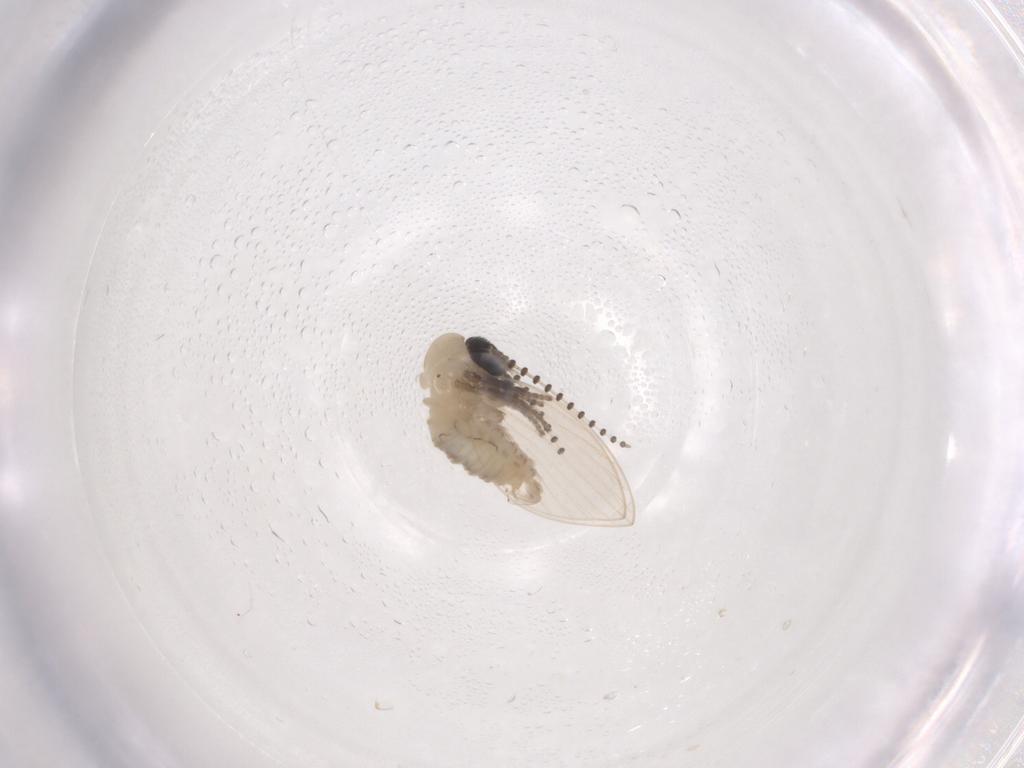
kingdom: Animalia
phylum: Arthropoda
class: Insecta
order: Diptera
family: Psychodidae
